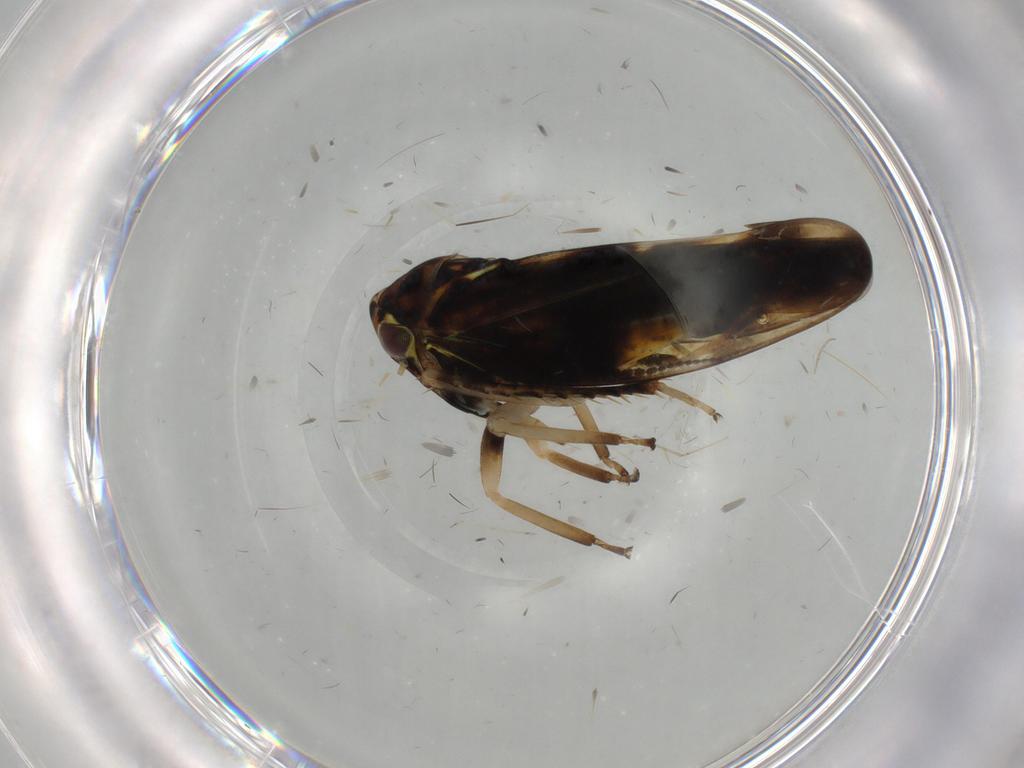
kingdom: Animalia
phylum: Arthropoda
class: Insecta
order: Diptera
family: Limoniidae
